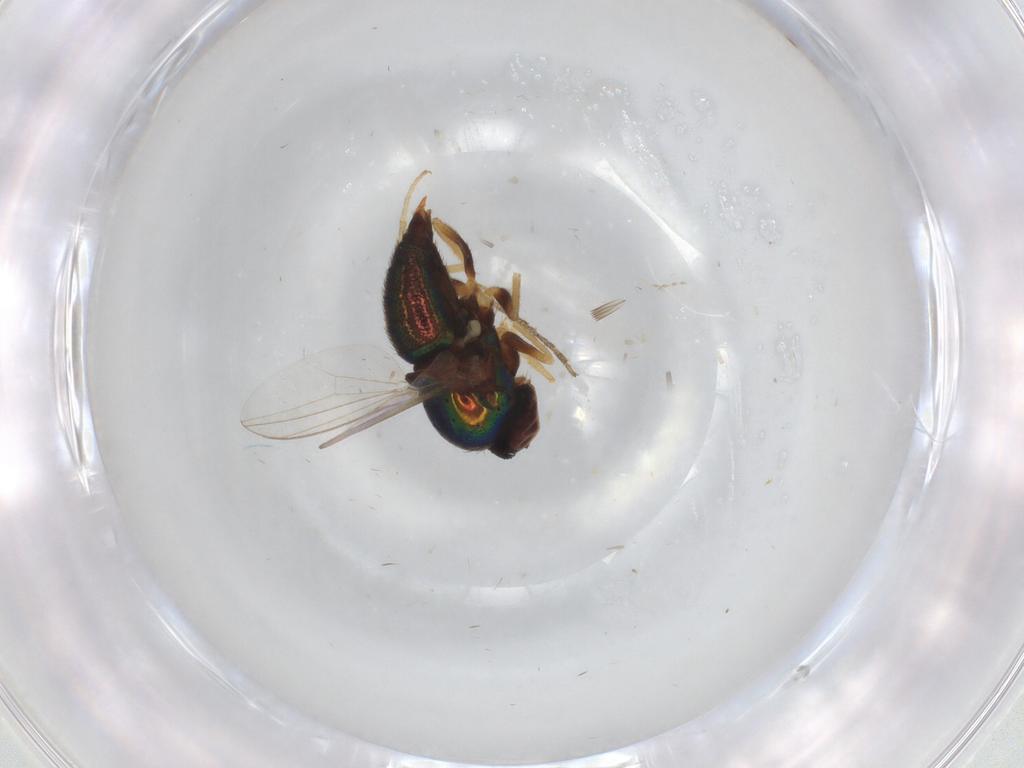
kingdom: Animalia
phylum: Arthropoda
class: Insecta
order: Diptera
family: Dolichopodidae
